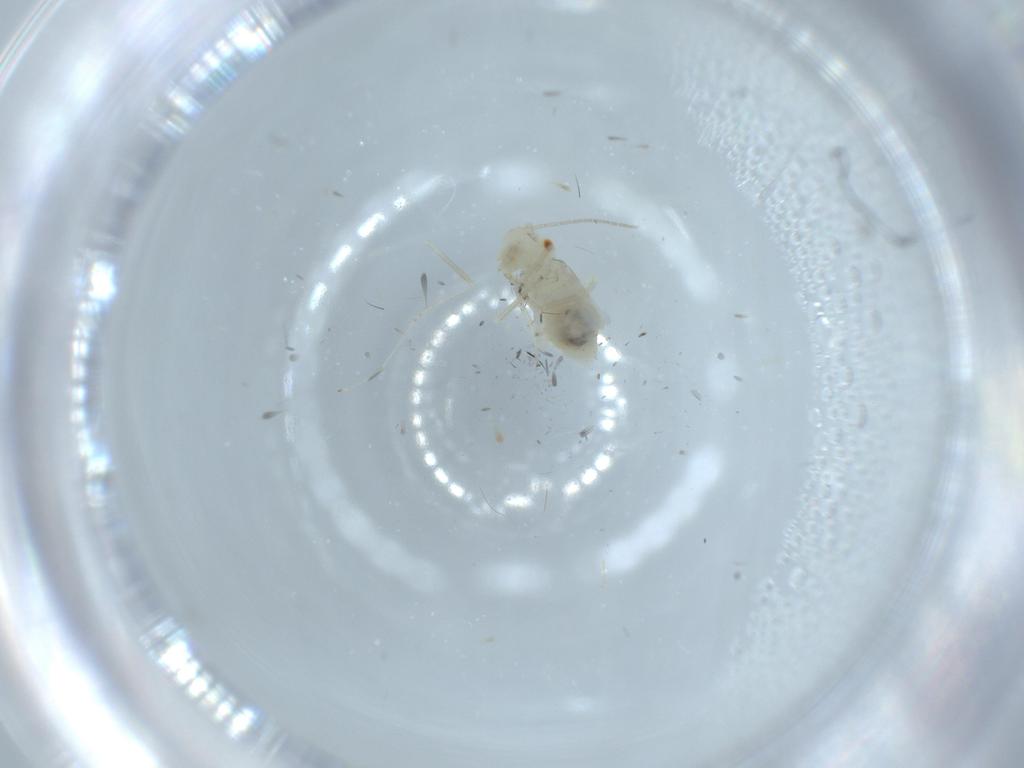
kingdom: Animalia
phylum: Arthropoda
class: Insecta
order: Psocodea
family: Caeciliusidae
